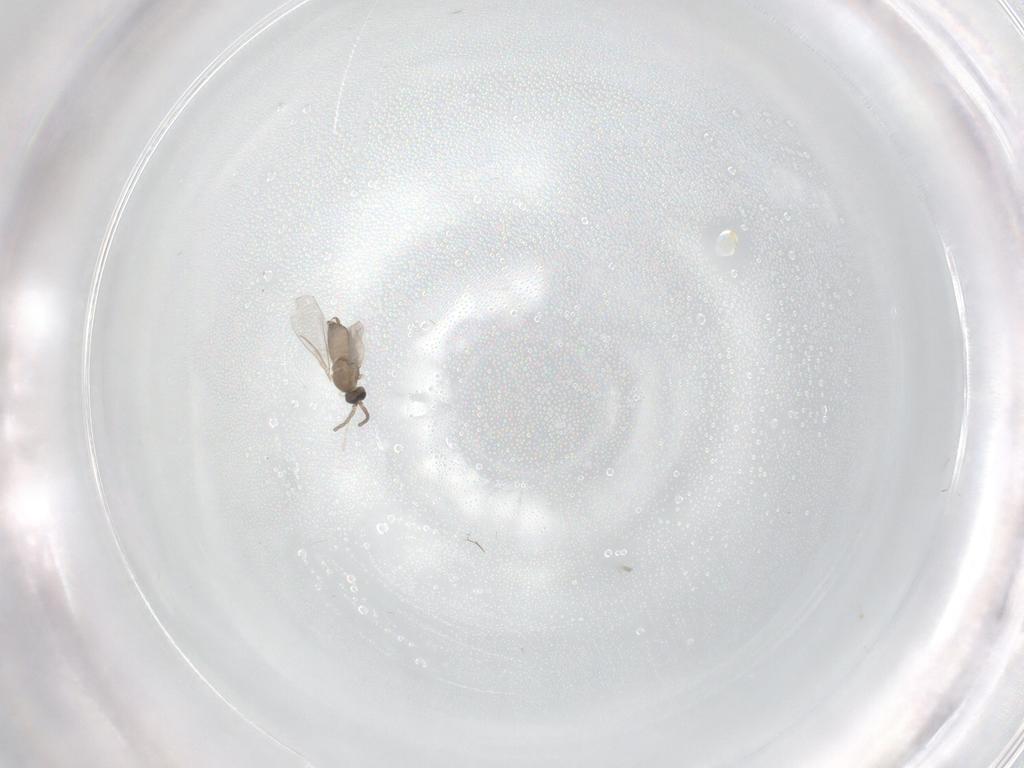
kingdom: Animalia
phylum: Arthropoda
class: Insecta
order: Diptera
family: Cecidomyiidae
